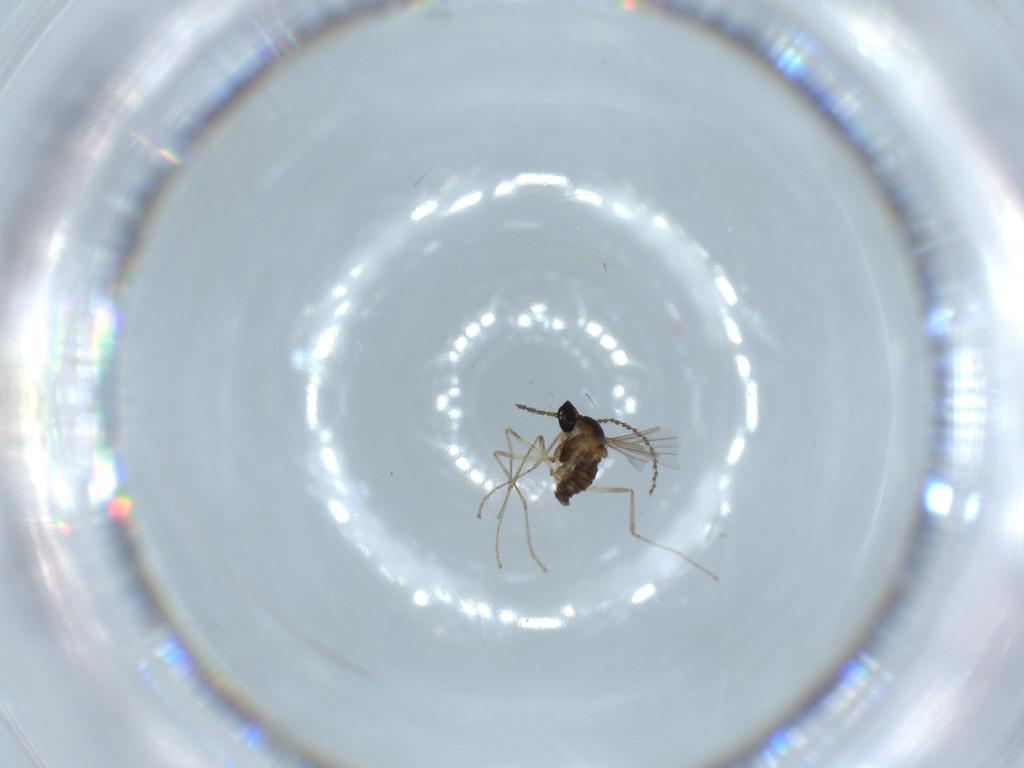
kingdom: Animalia
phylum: Arthropoda
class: Insecta
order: Diptera
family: Cecidomyiidae
